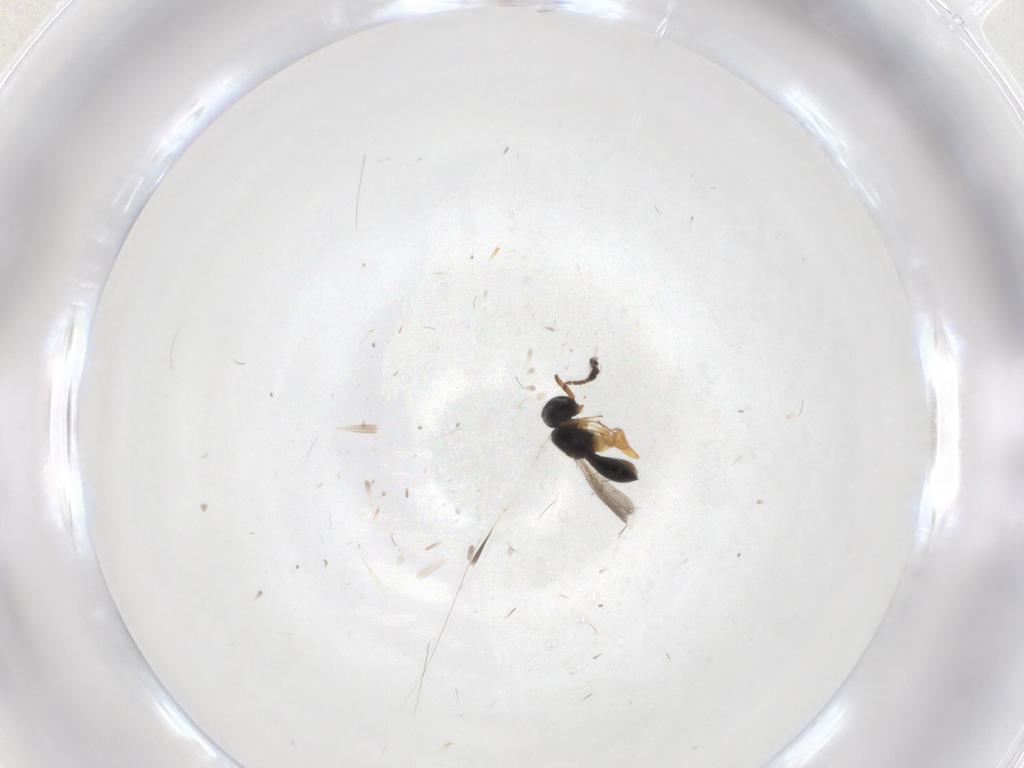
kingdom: Animalia
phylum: Arthropoda
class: Insecta
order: Hymenoptera
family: Scelionidae
